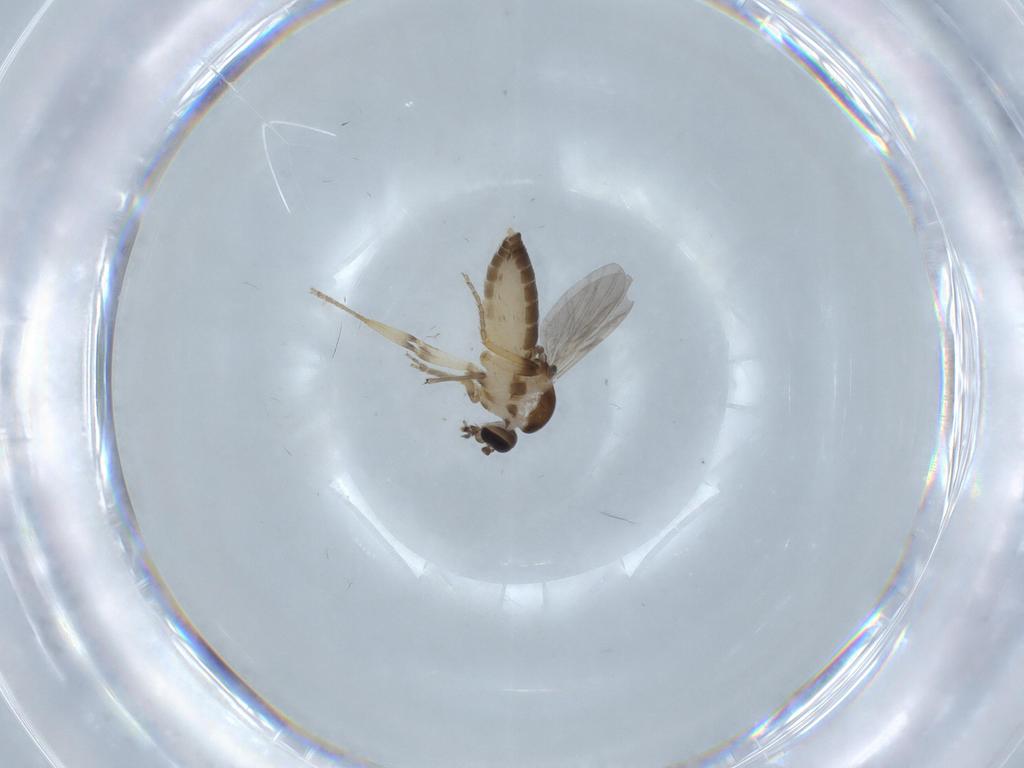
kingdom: Animalia
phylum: Arthropoda
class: Insecta
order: Diptera
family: Ceratopogonidae
